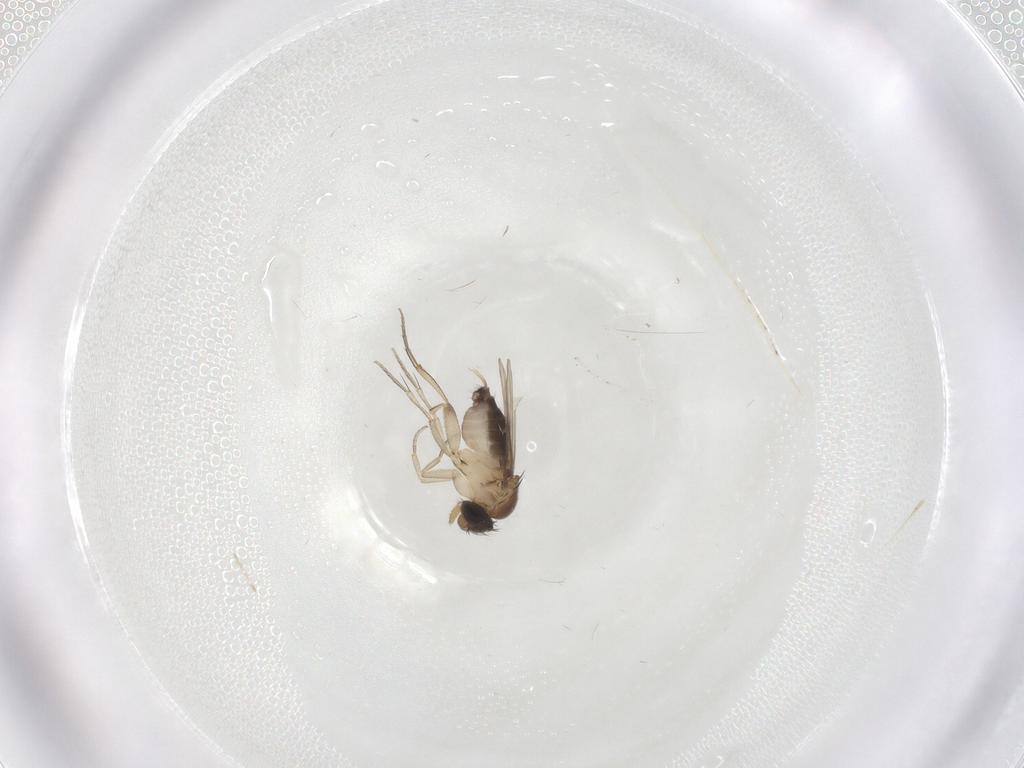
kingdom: Animalia
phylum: Arthropoda
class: Insecta
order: Diptera
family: Phoridae
